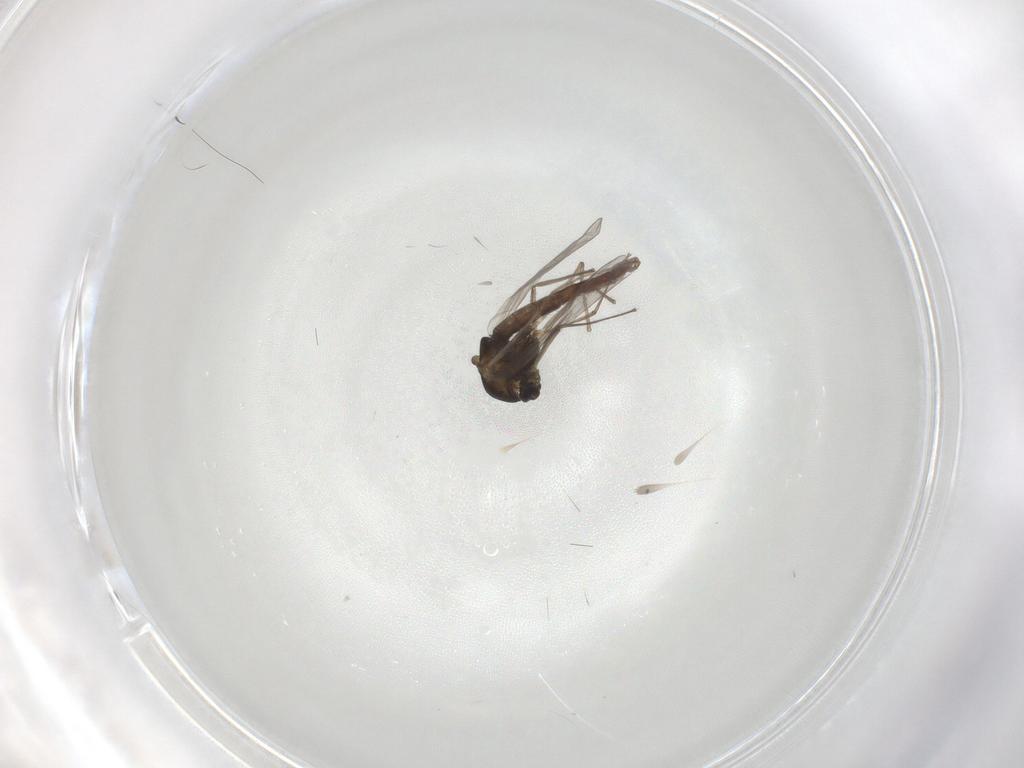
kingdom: Animalia
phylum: Arthropoda
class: Insecta
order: Diptera
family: Chironomidae
